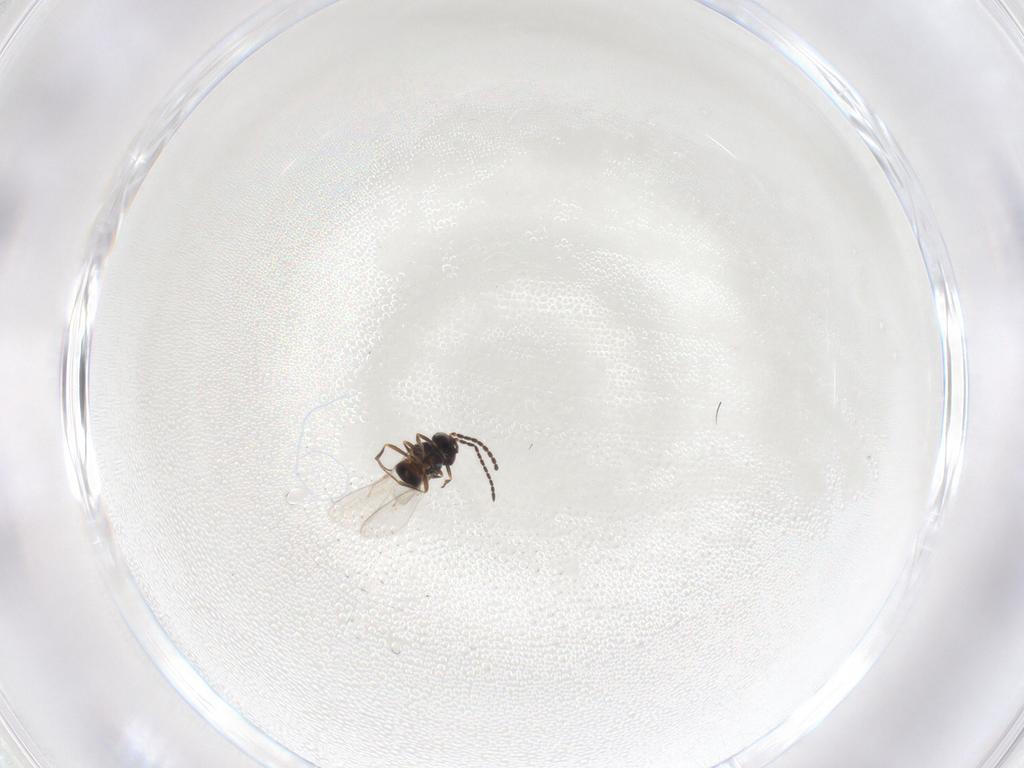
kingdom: Animalia
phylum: Arthropoda
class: Insecta
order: Hymenoptera
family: Scelionidae
